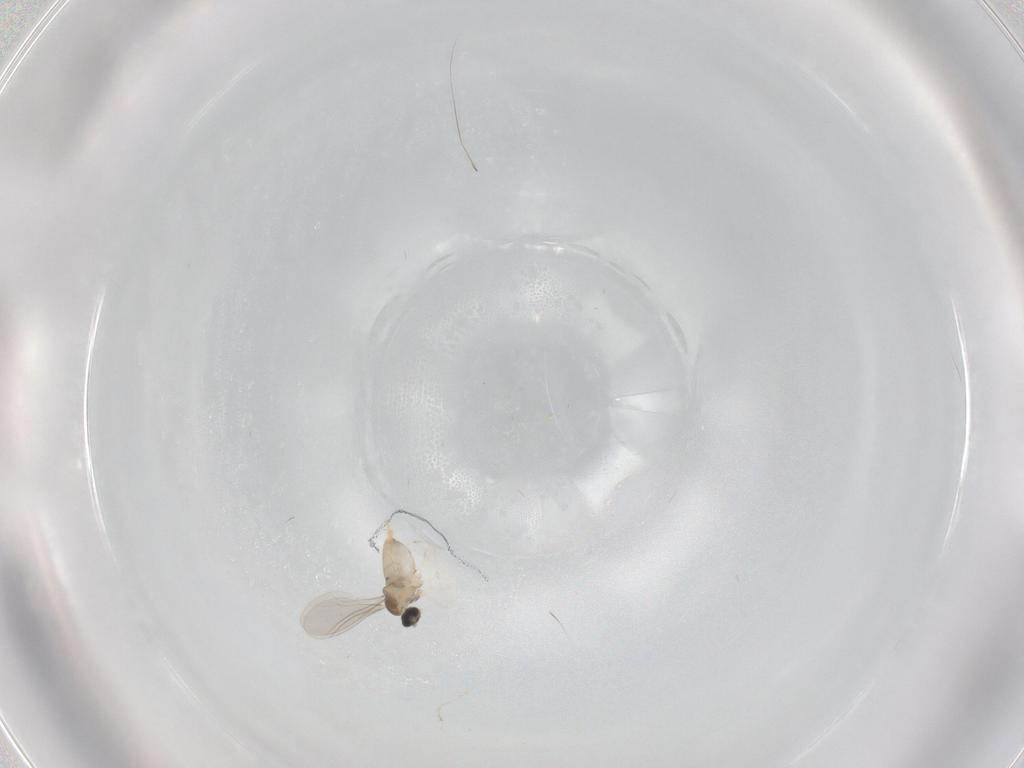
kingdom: Animalia
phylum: Arthropoda
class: Insecta
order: Diptera
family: Cecidomyiidae
